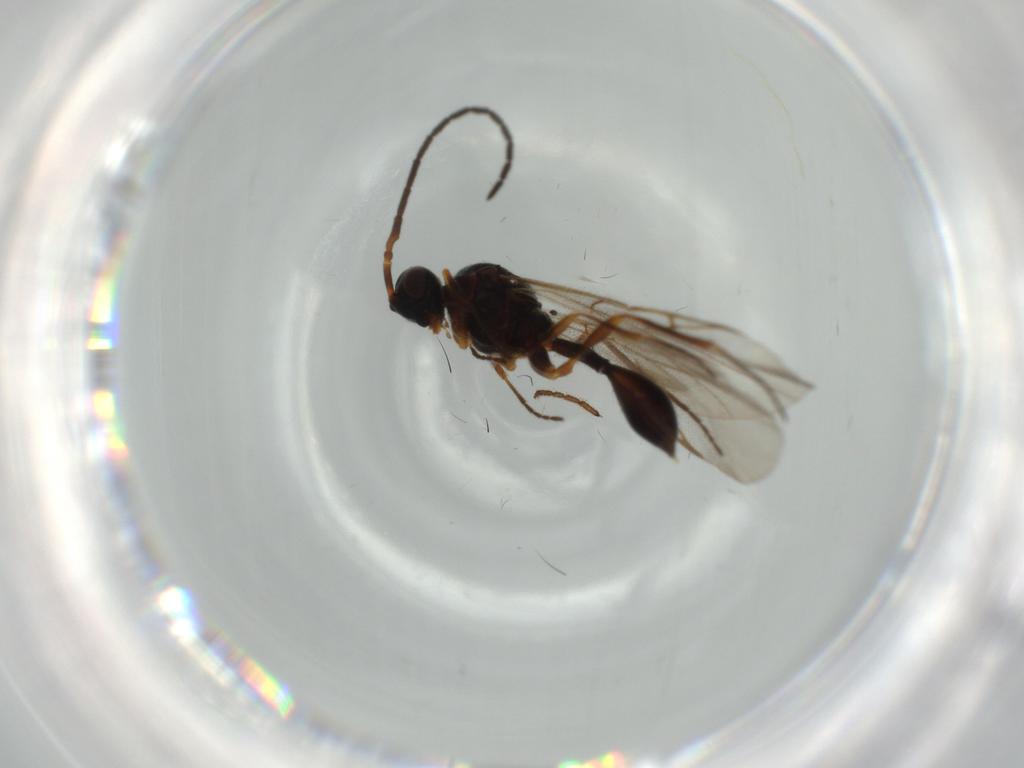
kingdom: Animalia
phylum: Arthropoda
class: Insecta
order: Hymenoptera
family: Ichneumonidae
